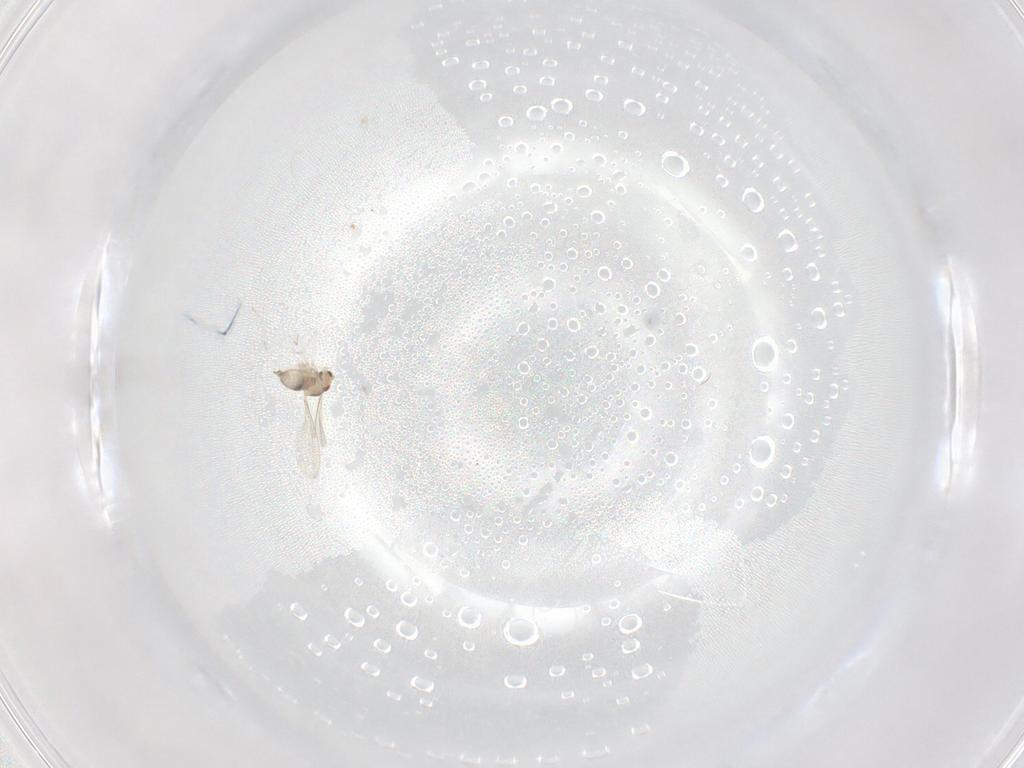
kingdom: Animalia
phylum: Arthropoda
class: Insecta
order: Diptera
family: Cecidomyiidae
